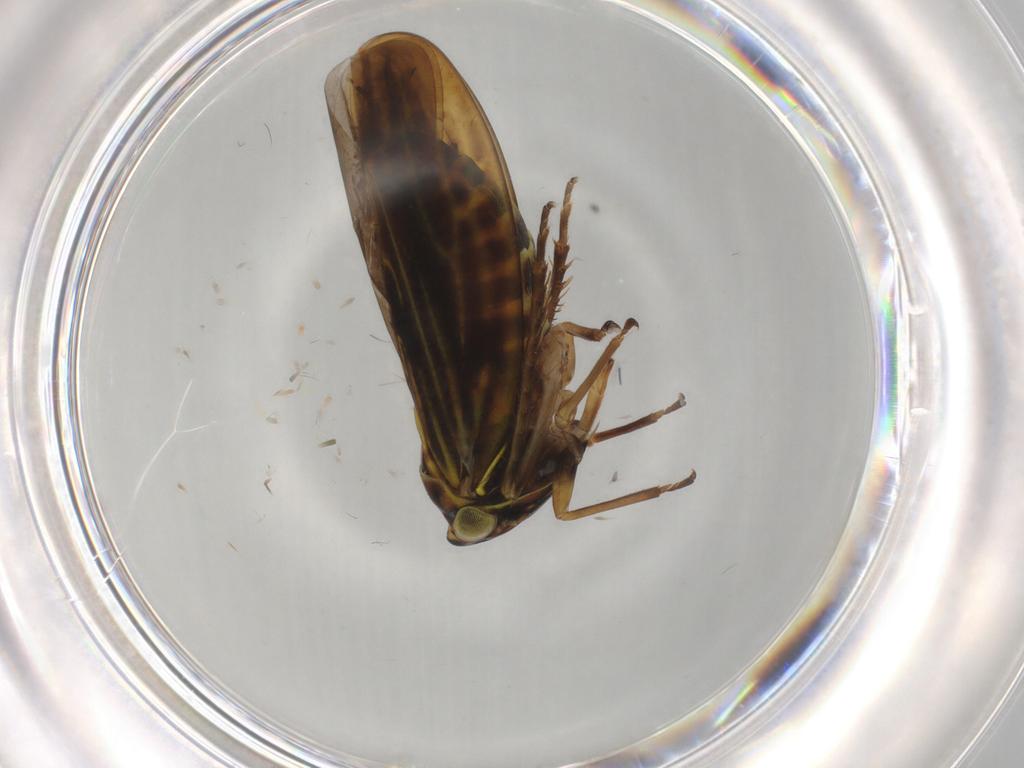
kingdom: Animalia
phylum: Arthropoda
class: Insecta
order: Hemiptera
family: Cicadellidae
